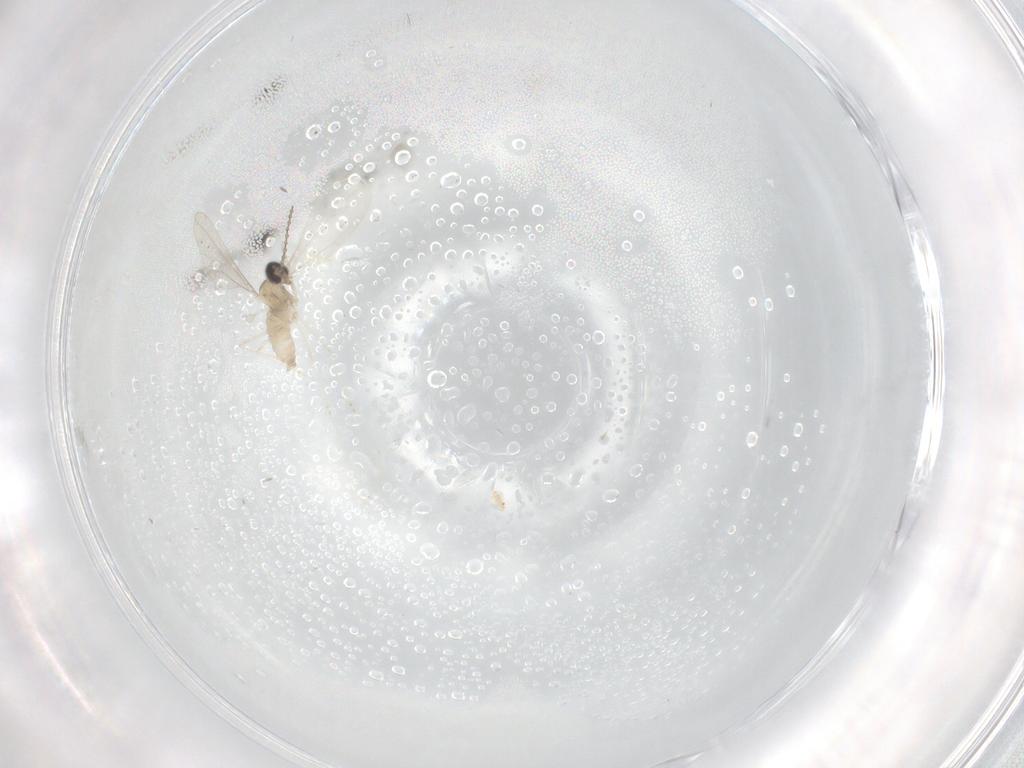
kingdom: Animalia
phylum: Arthropoda
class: Insecta
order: Diptera
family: Cecidomyiidae
